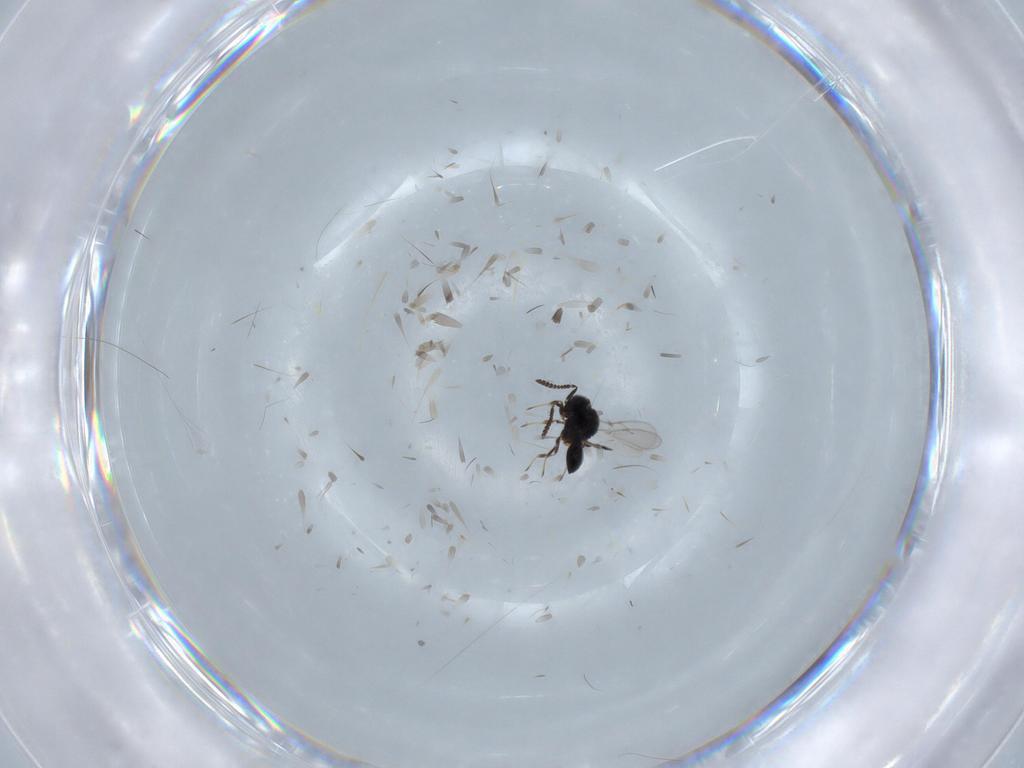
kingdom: Animalia
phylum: Arthropoda
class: Insecta
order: Hymenoptera
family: Scelionidae
